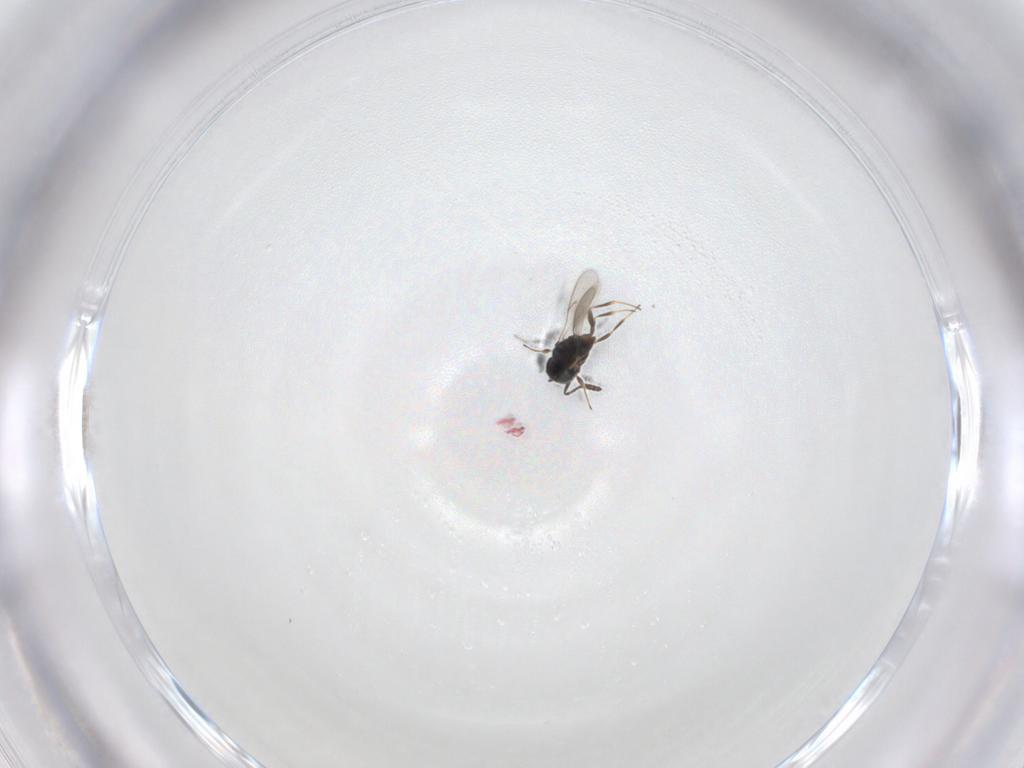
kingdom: Animalia
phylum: Arthropoda
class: Insecta
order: Hymenoptera
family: Scelionidae
